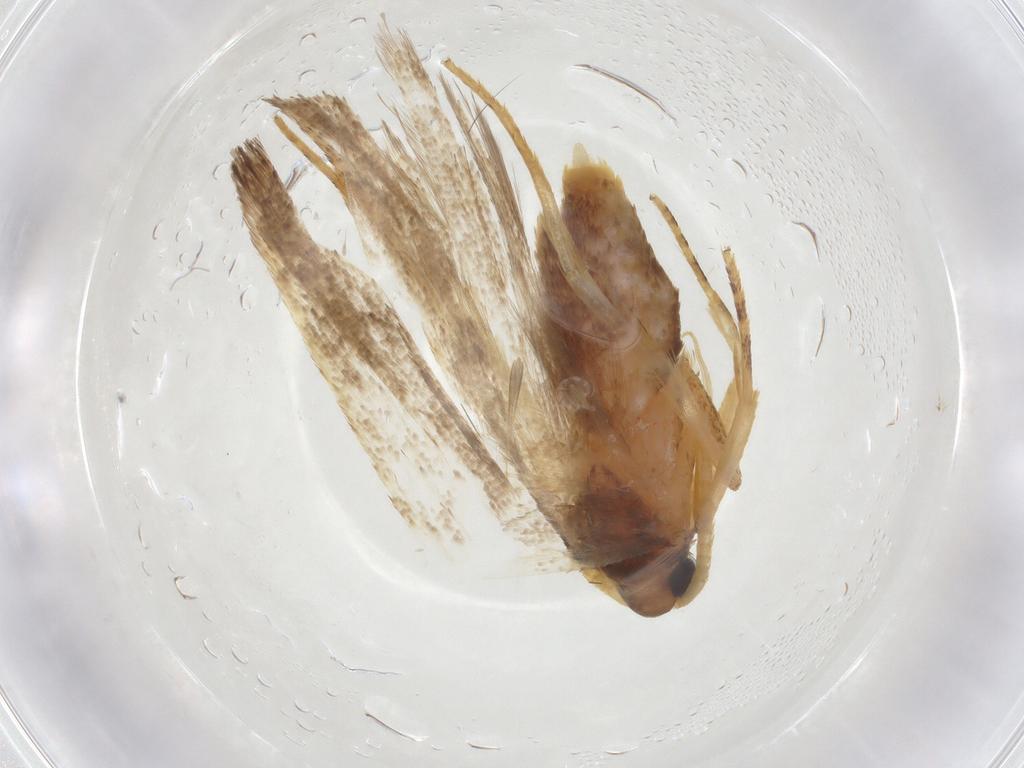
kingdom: Animalia
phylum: Arthropoda
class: Insecta
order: Lepidoptera
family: Lecithoceridae
